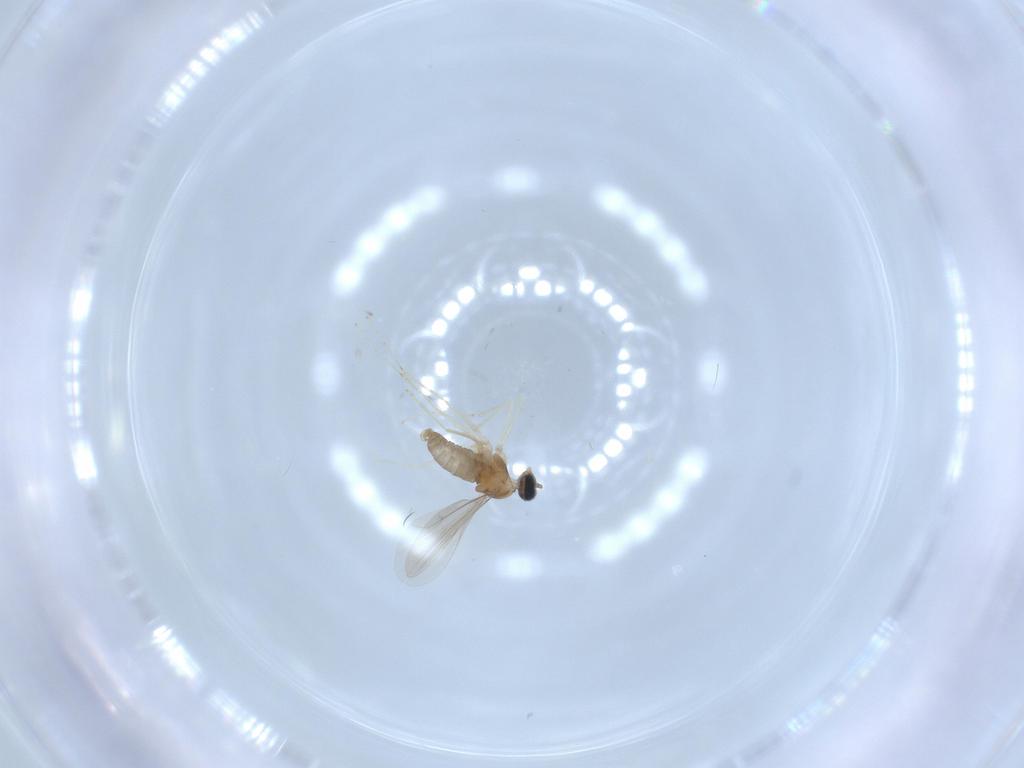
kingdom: Animalia
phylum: Arthropoda
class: Insecta
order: Diptera
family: Cecidomyiidae
